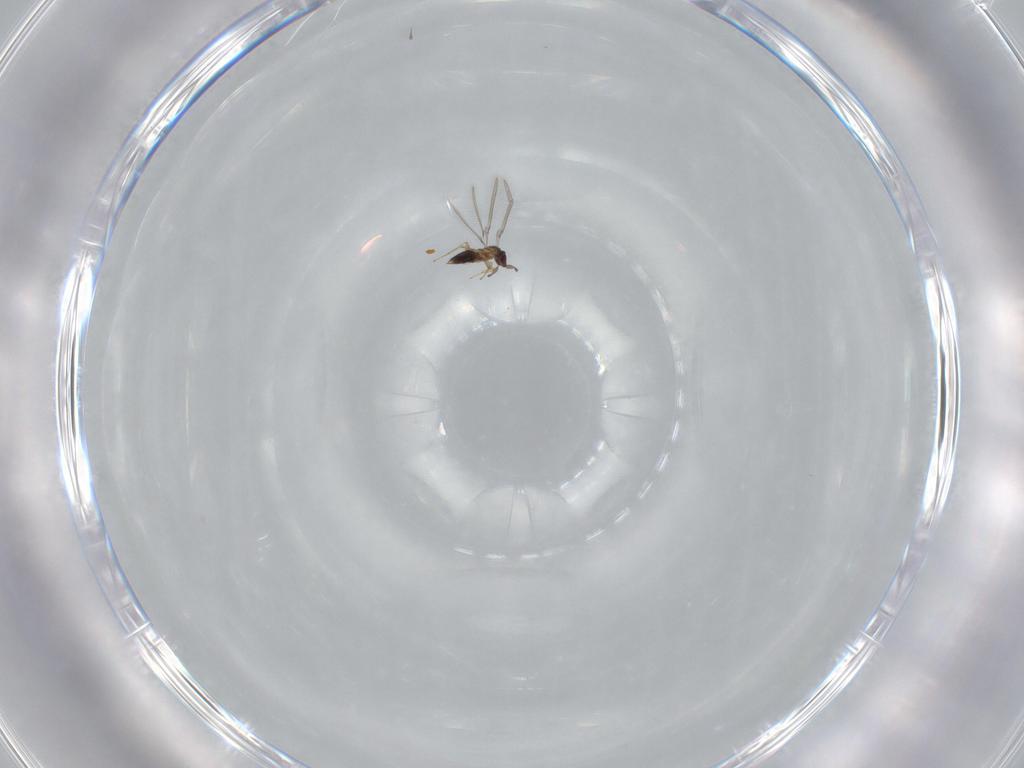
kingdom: Animalia
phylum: Arthropoda
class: Insecta
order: Hymenoptera
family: Mymaridae
